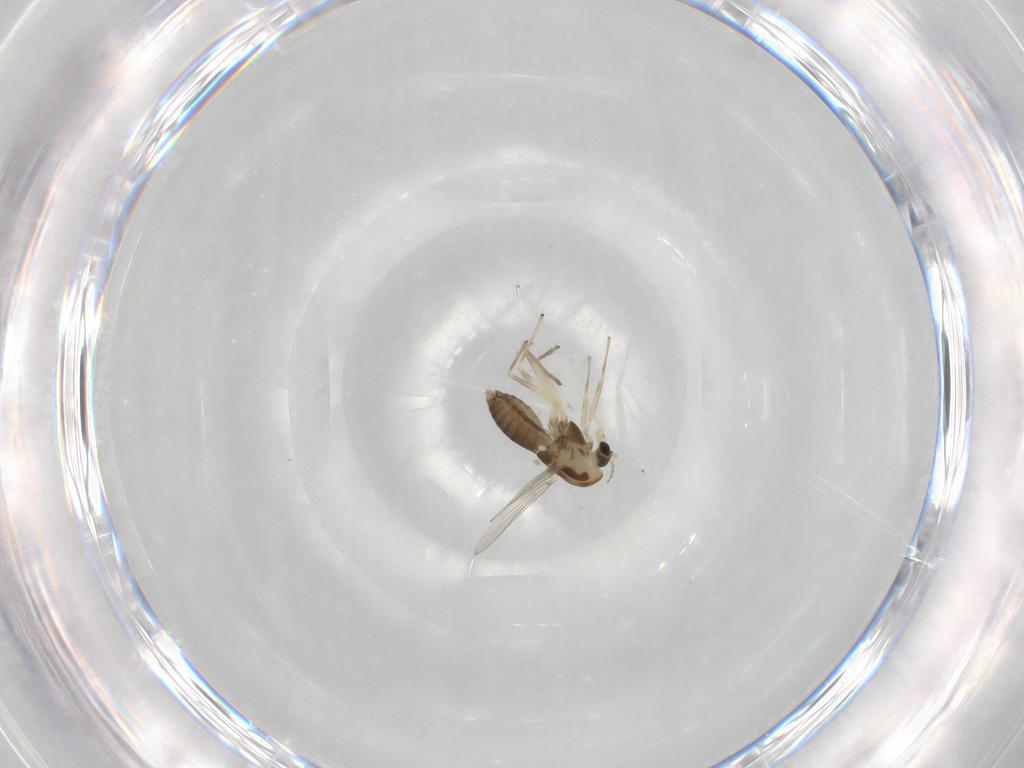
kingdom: Animalia
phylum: Arthropoda
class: Insecta
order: Diptera
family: Chironomidae
